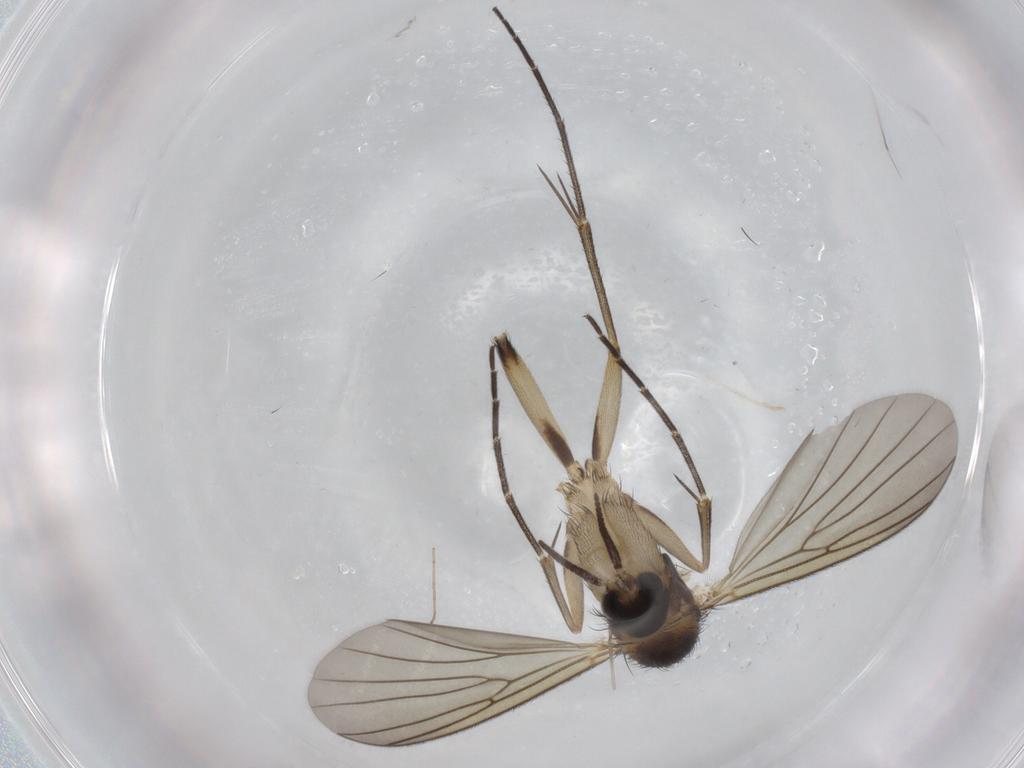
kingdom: Animalia
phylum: Arthropoda
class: Insecta
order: Diptera
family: Mycetophilidae
